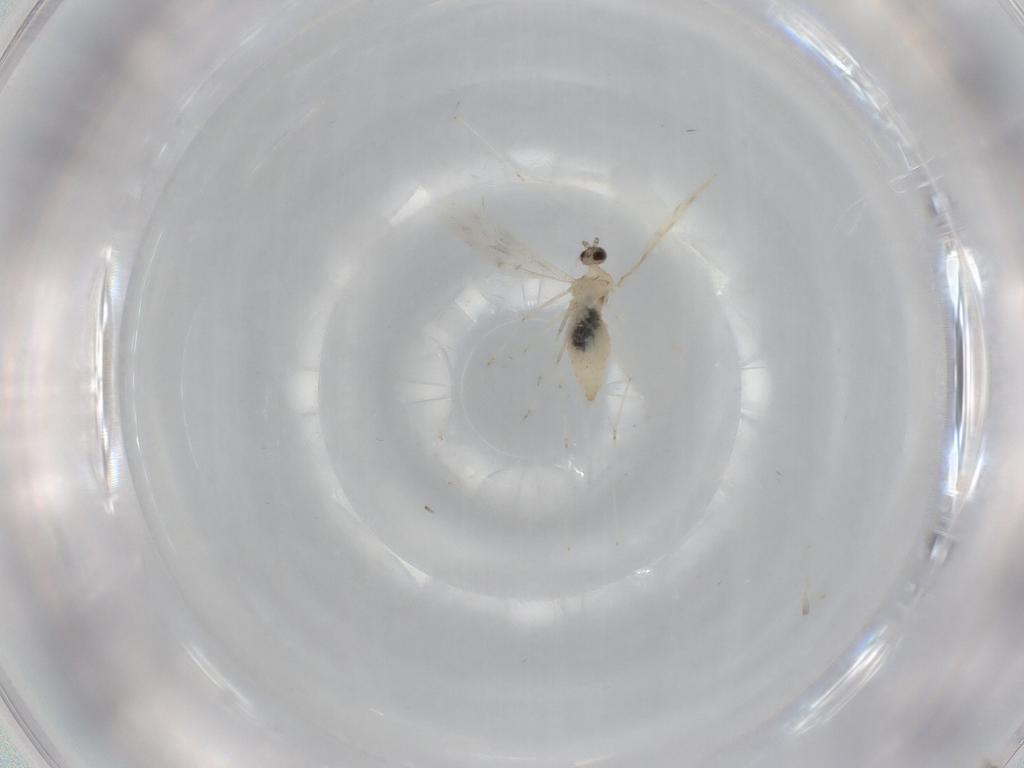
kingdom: Animalia
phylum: Arthropoda
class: Insecta
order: Diptera
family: Cecidomyiidae
